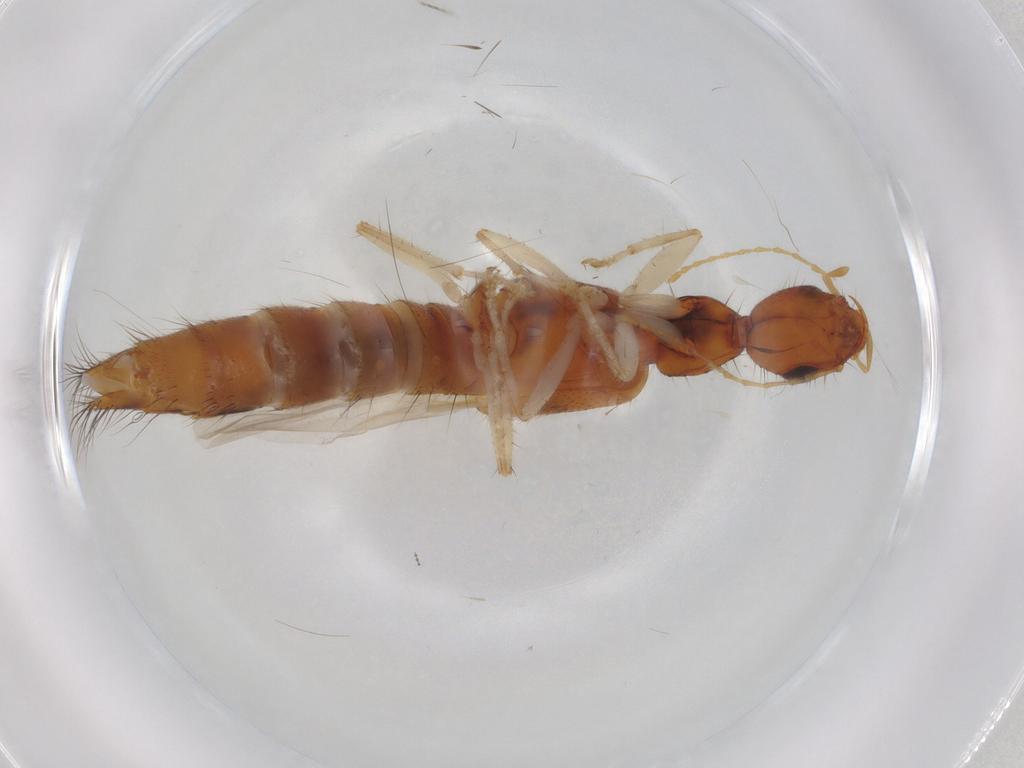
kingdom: Animalia
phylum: Arthropoda
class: Insecta
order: Coleoptera
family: Staphylinidae
